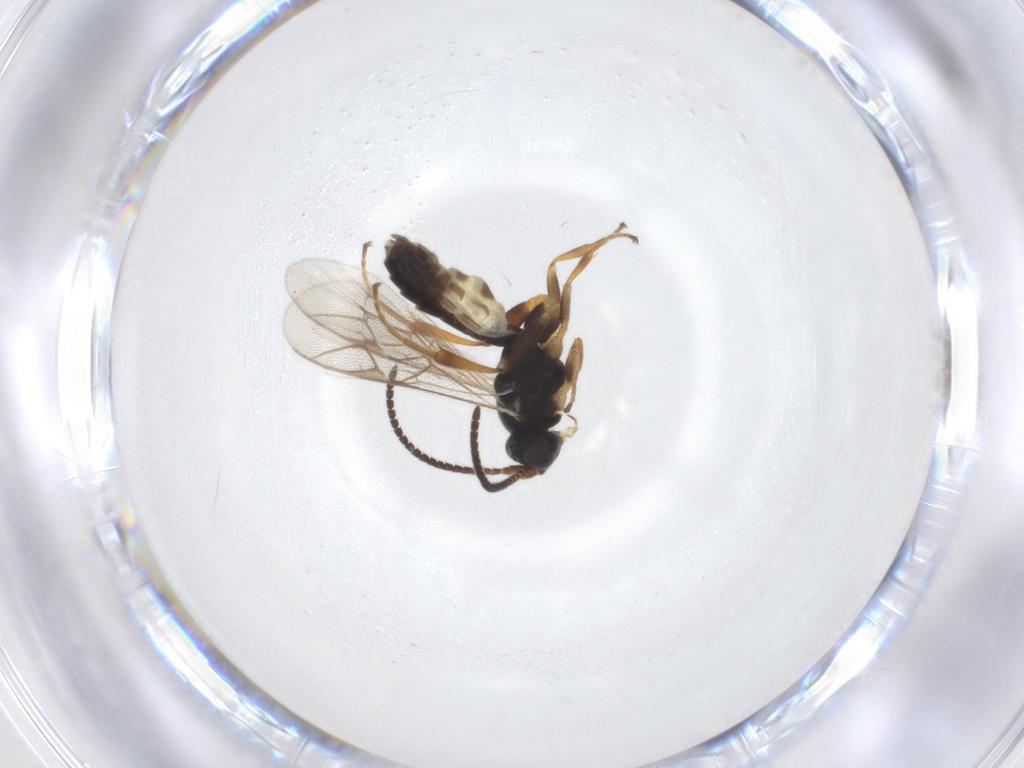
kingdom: Animalia
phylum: Arthropoda
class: Insecta
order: Hymenoptera
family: Ichneumonidae
